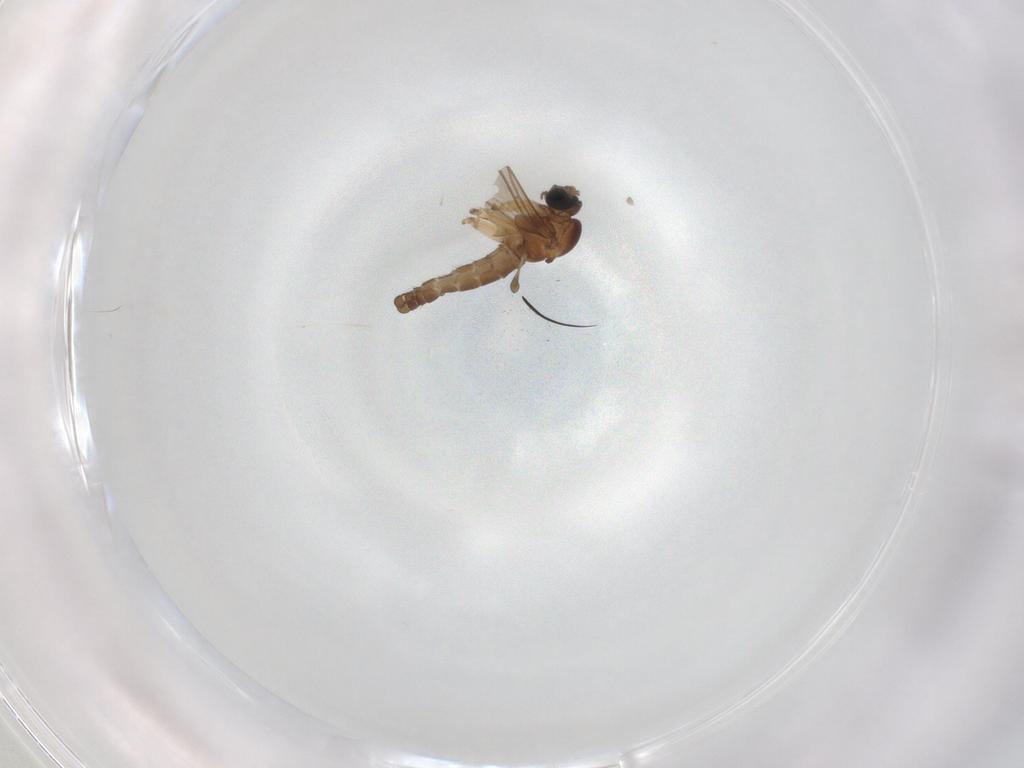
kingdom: Animalia
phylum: Arthropoda
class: Insecta
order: Diptera
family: Sciaridae
